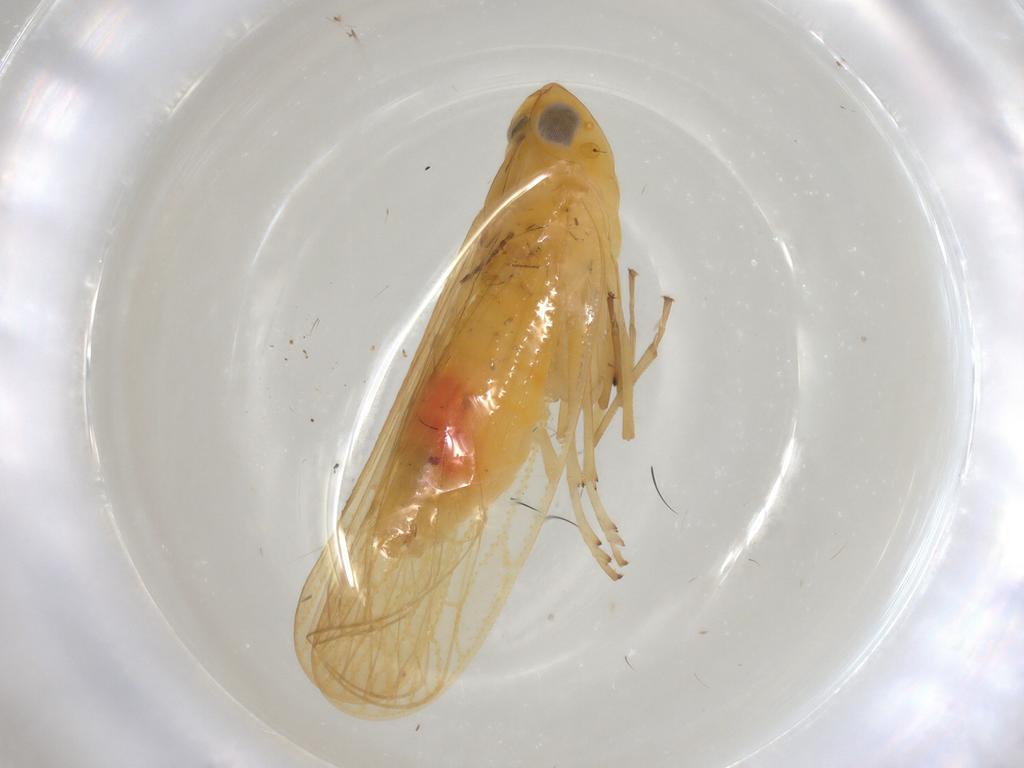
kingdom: Animalia
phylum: Arthropoda
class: Insecta
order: Hemiptera
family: Cixiidae
